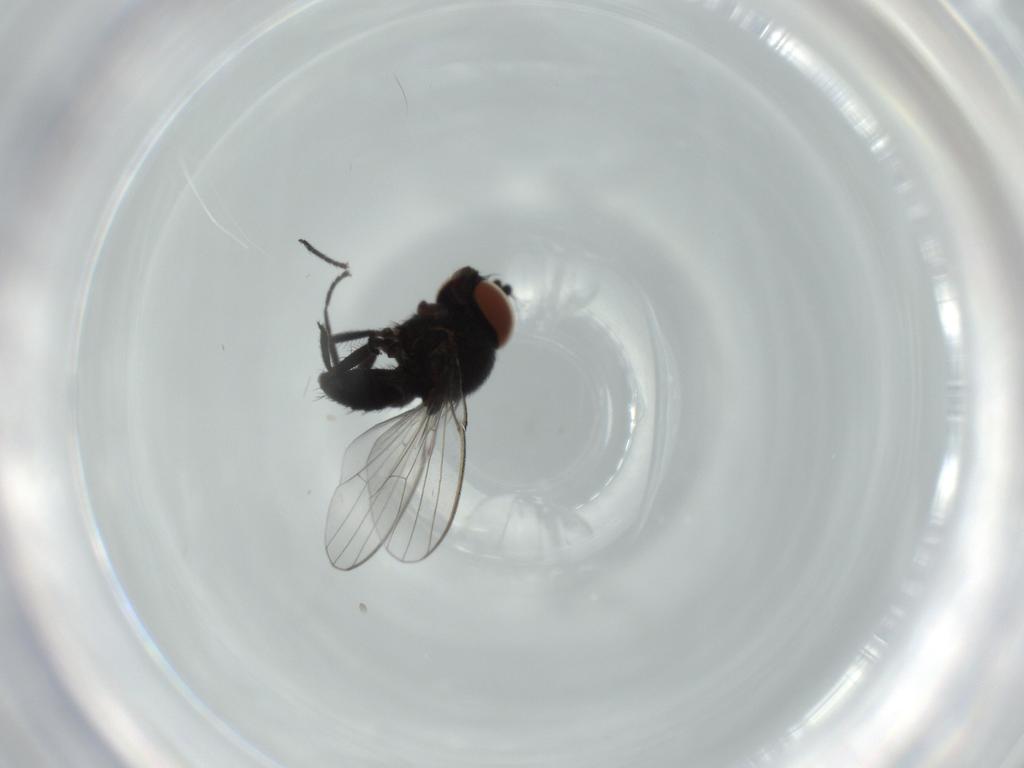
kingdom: Animalia
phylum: Arthropoda
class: Insecta
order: Diptera
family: Milichiidae
